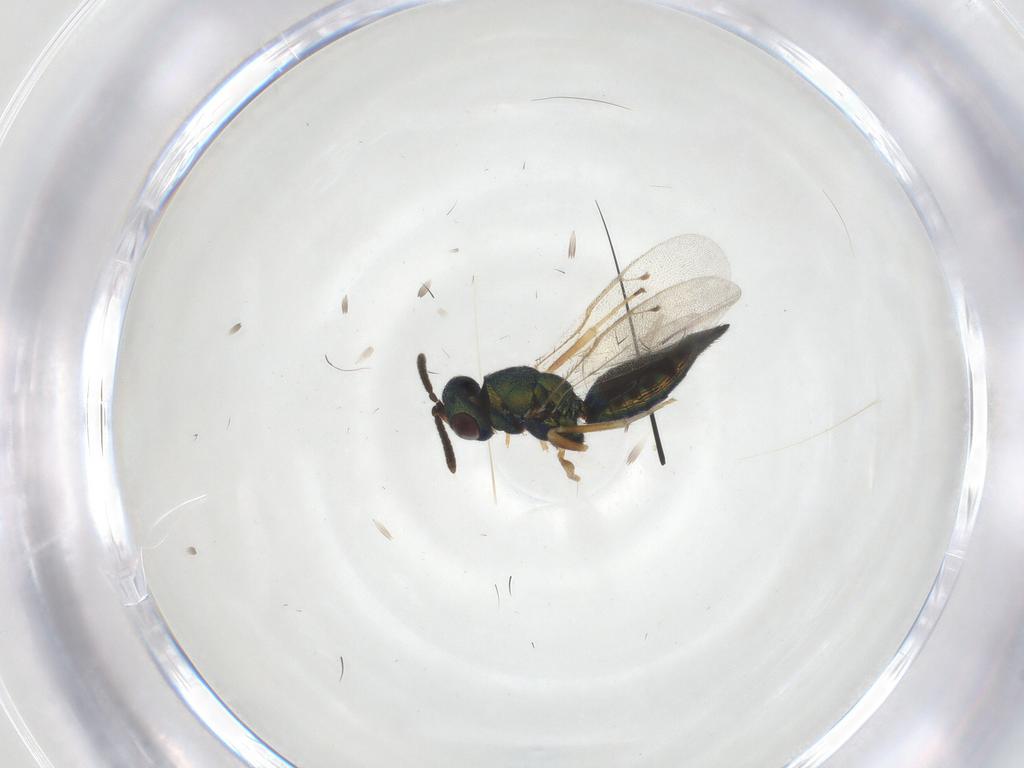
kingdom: Animalia
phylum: Arthropoda
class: Insecta
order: Hymenoptera
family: Pteromalidae
